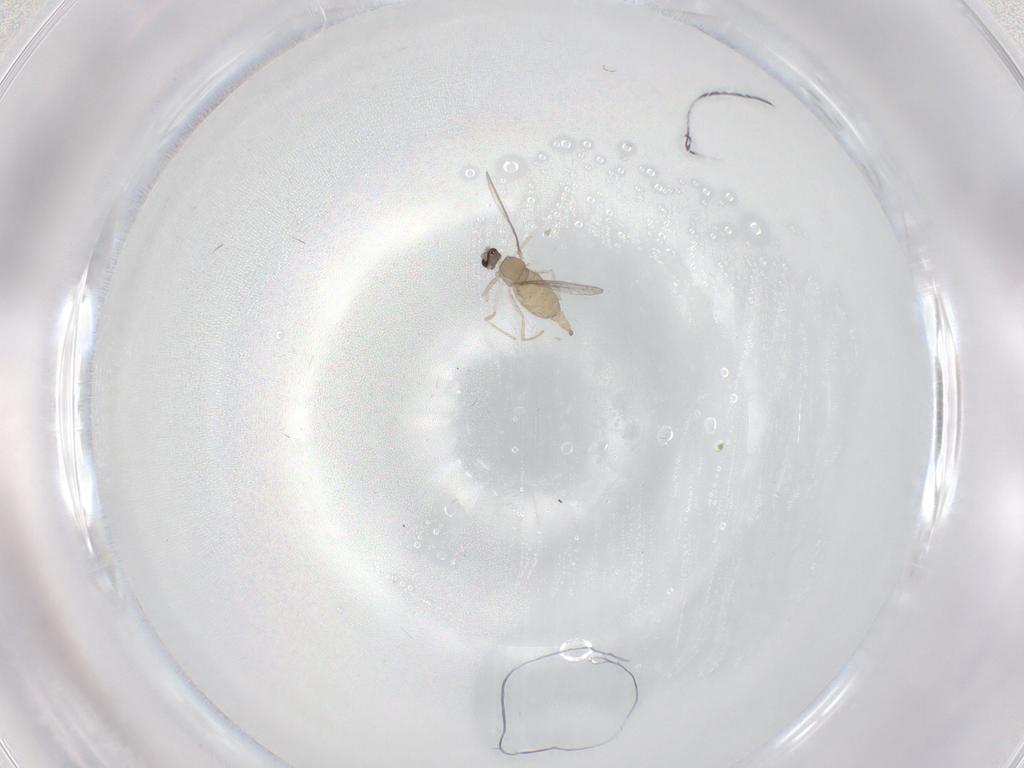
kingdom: Animalia
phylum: Arthropoda
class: Insecta
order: Diptera
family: Cecidomyiidae
